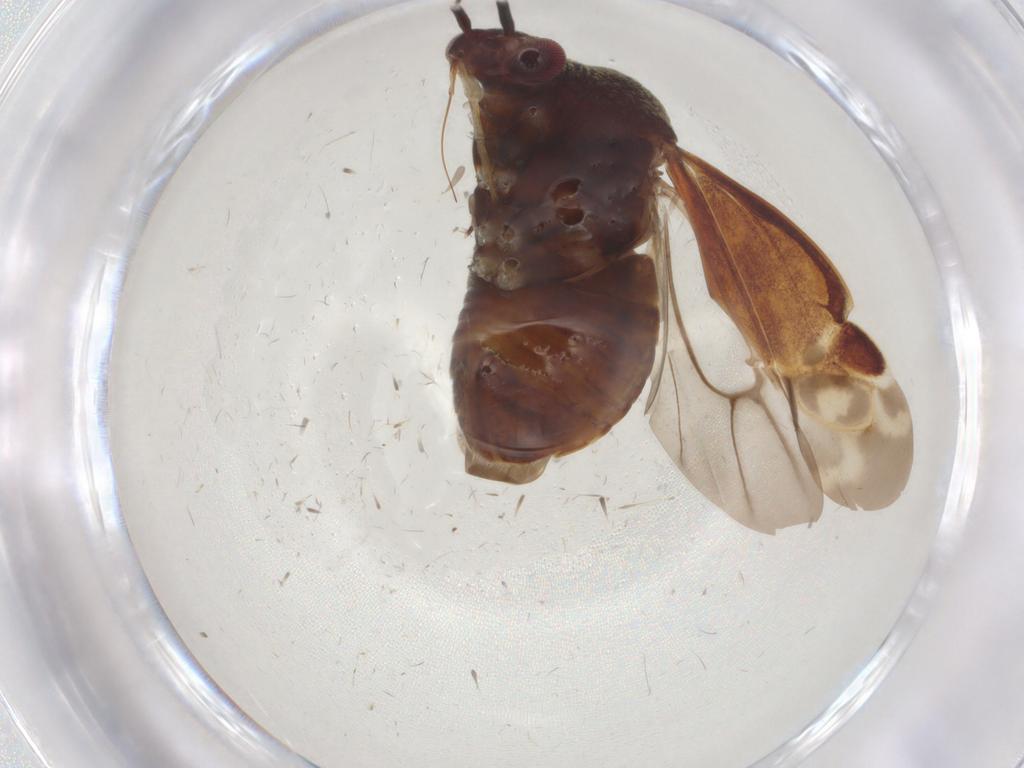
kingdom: Animalia
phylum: Arthropoda
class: Insecta
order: Hemiptera
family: Miridae
